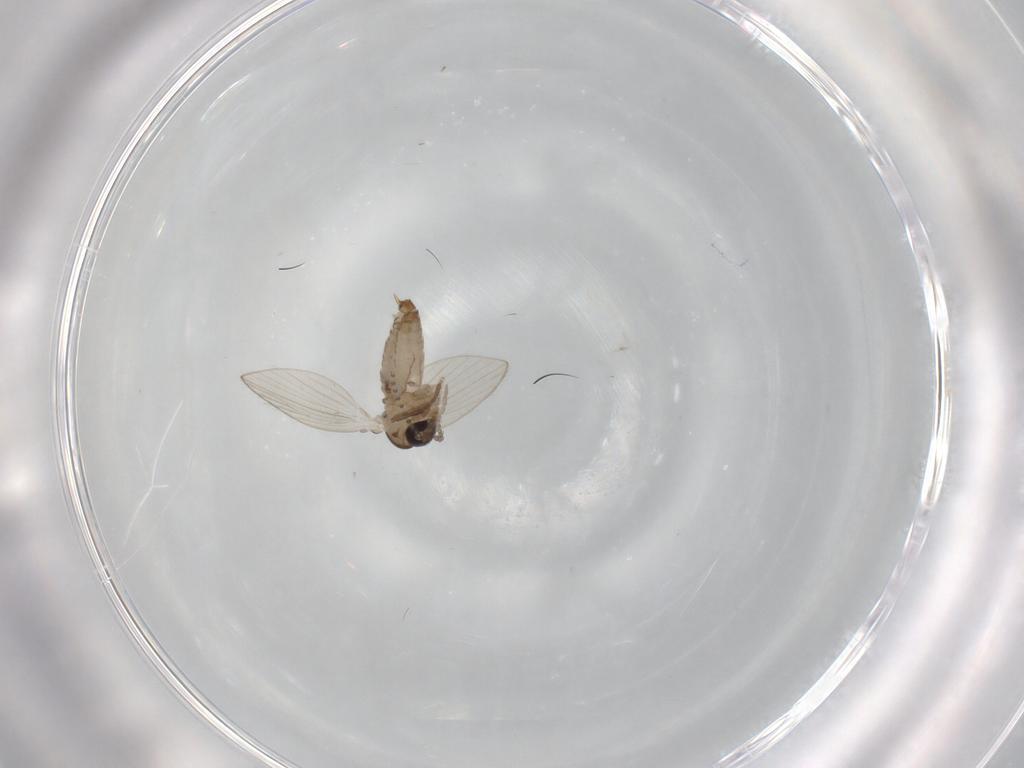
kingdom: Animalia
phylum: Arthropoda
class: Insecta
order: Diptera
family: Psychodidae
